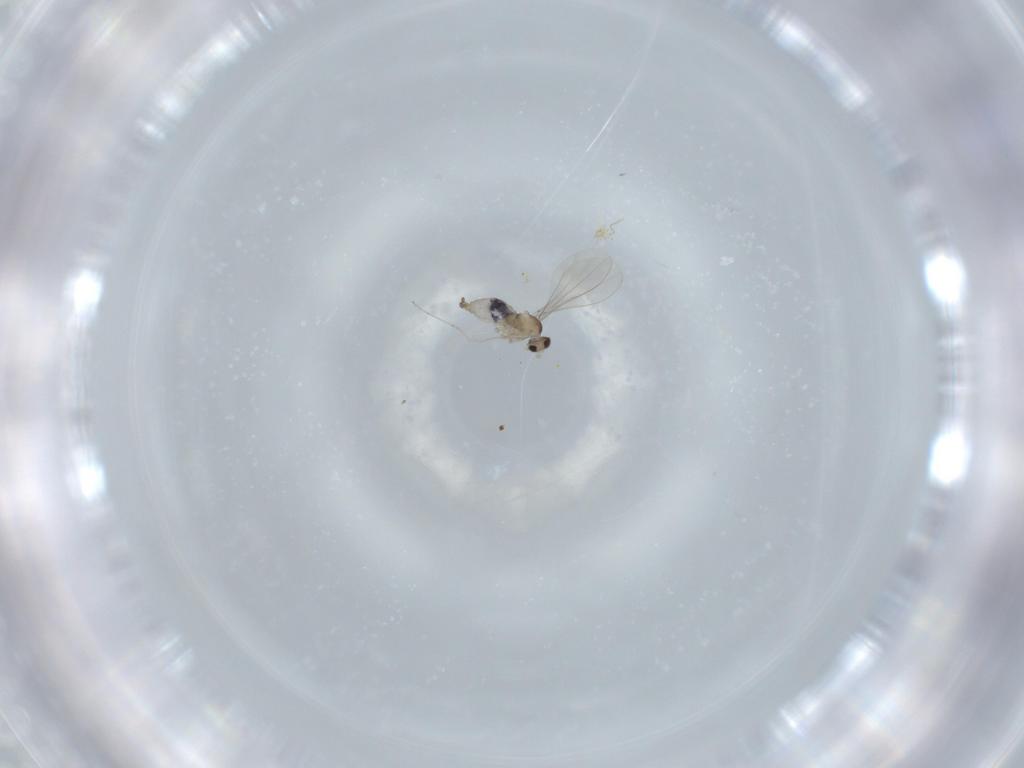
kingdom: Animalia
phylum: Arthropoda
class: Insecta
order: Diptera
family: Cecidomyiidae
